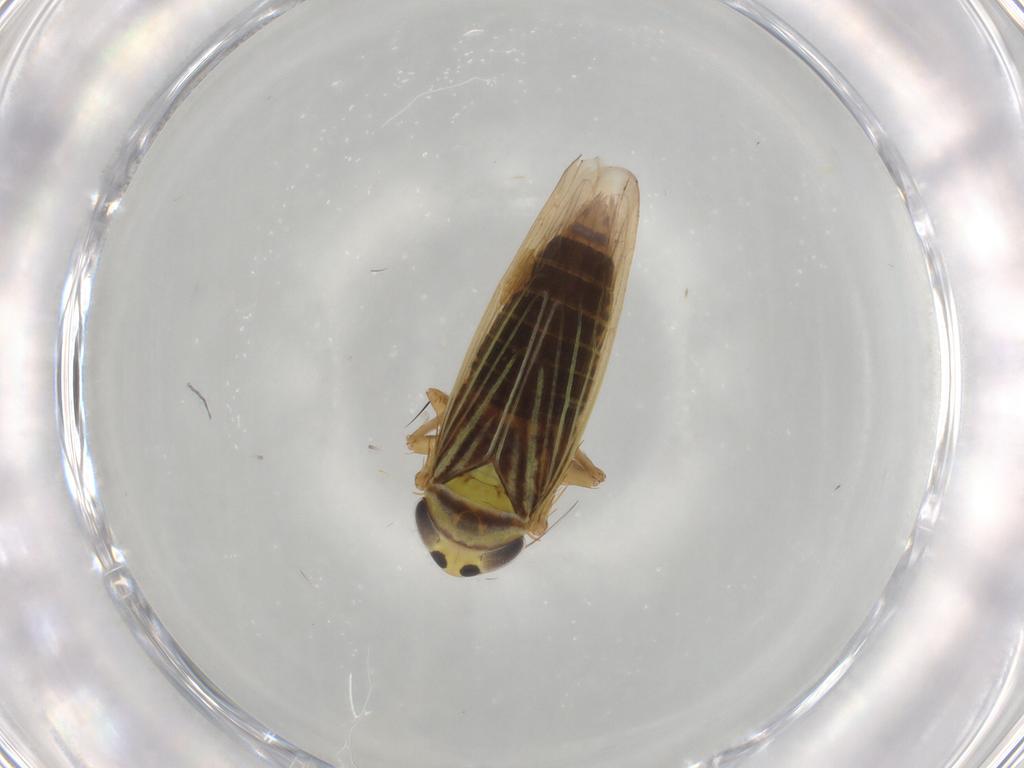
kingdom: Animalia
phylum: Arthropoda
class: Insecta
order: Hemiptera
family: Cicadellidae
